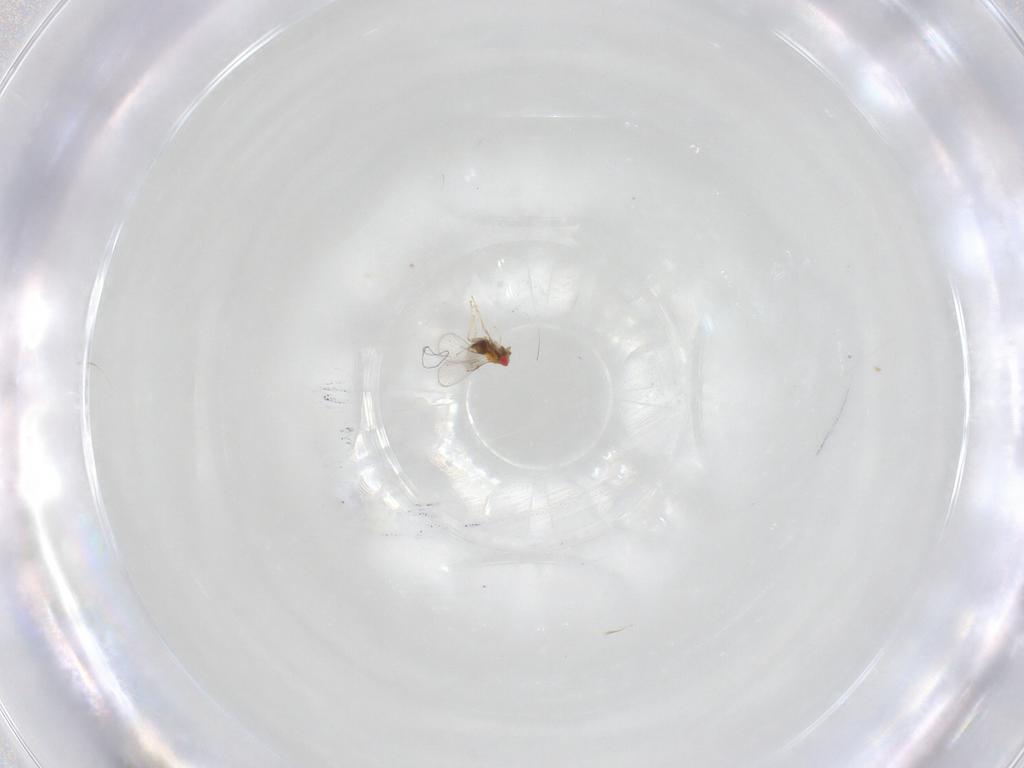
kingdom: Animalia
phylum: Arthropoda
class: Insecta
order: Hymenoptera
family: Trichogrammatidae
